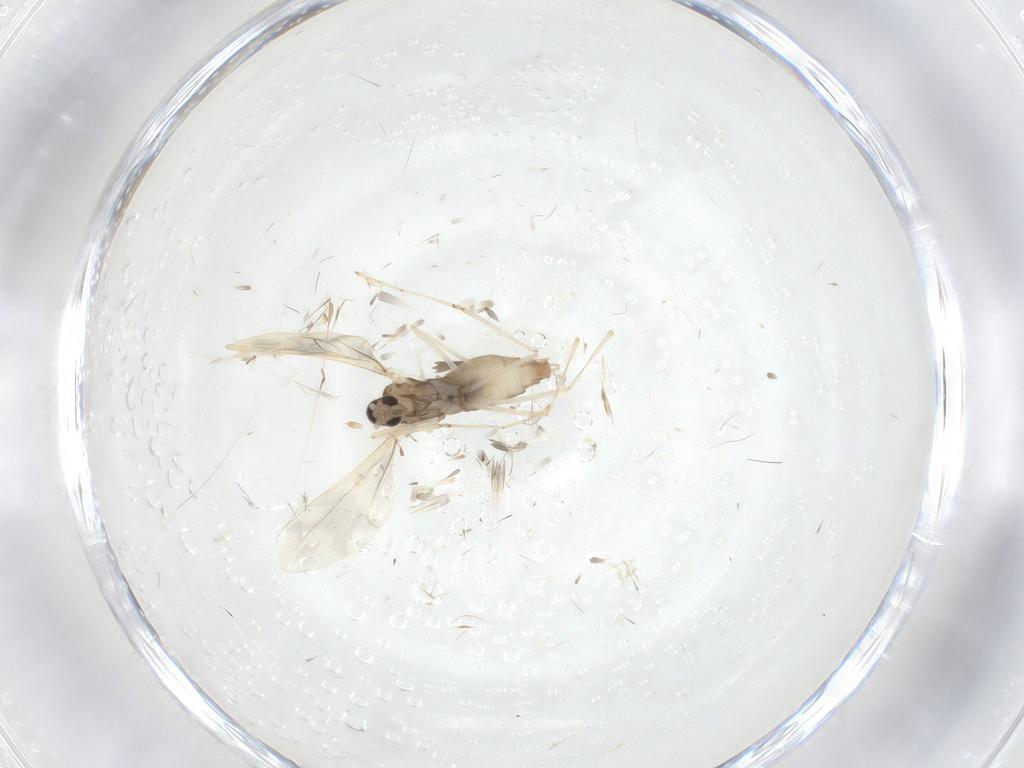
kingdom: Animalia
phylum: Arthropoda
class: Insecta
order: Diptera
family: Cecidomyiidae
